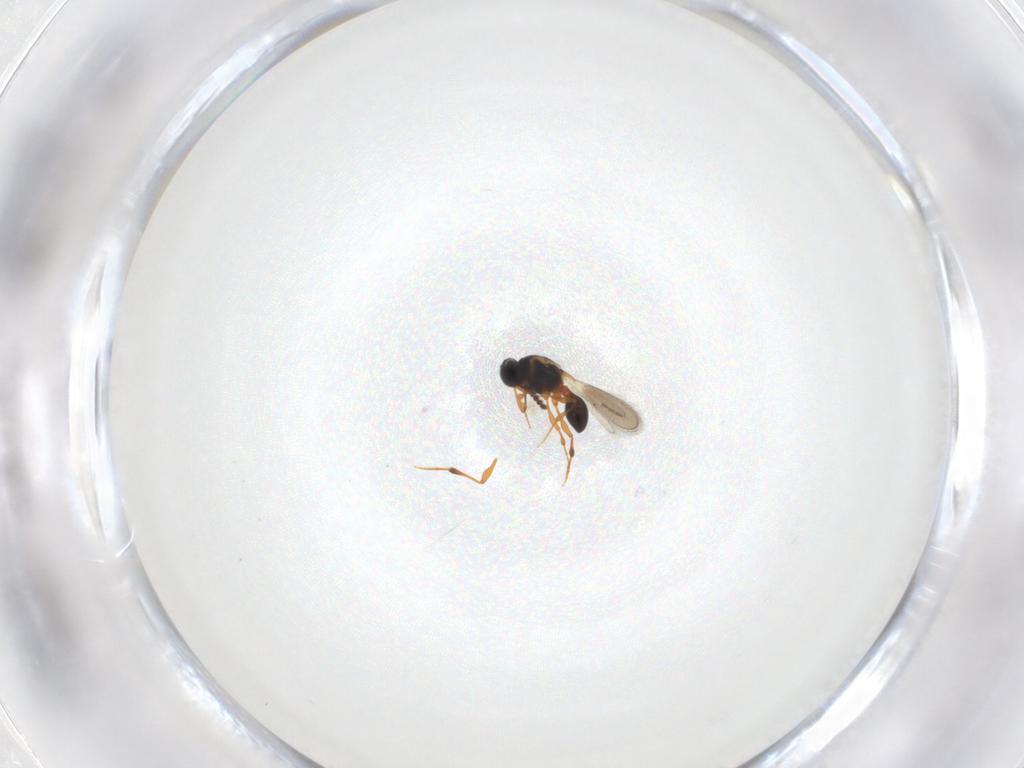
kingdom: Animalia
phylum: Arthropoda
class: Insecta
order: Hymenoptera
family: Platygastridae
